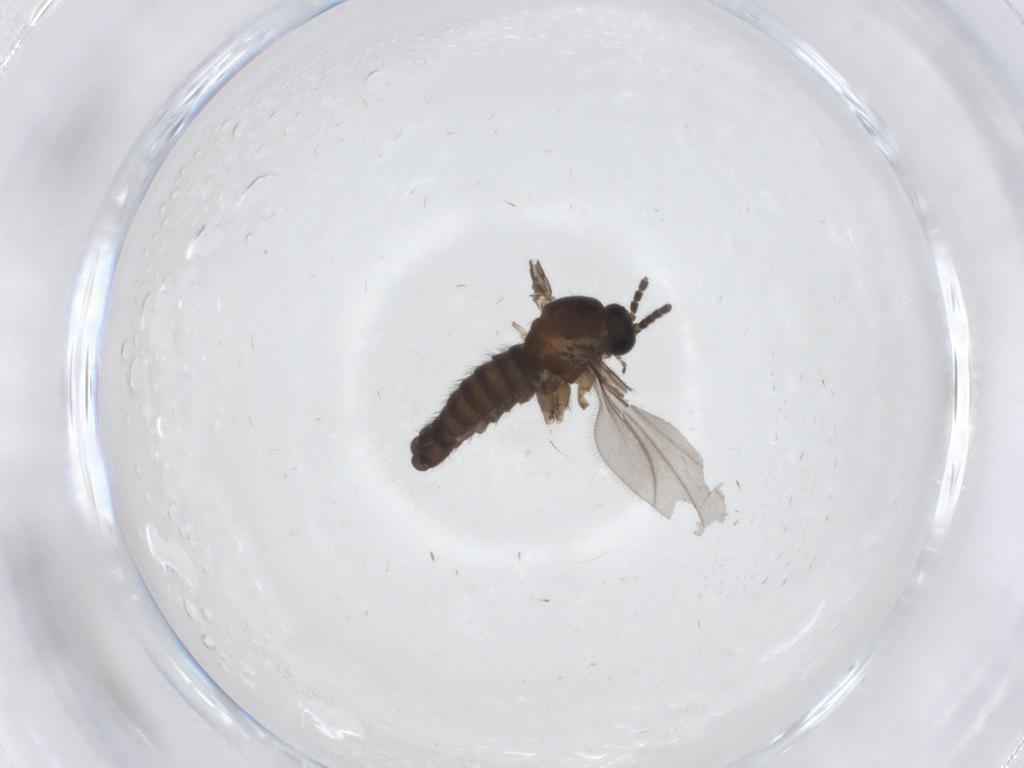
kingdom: Animalia
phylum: Arthropoda
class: Insecta
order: Diptera
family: Sciaridae
